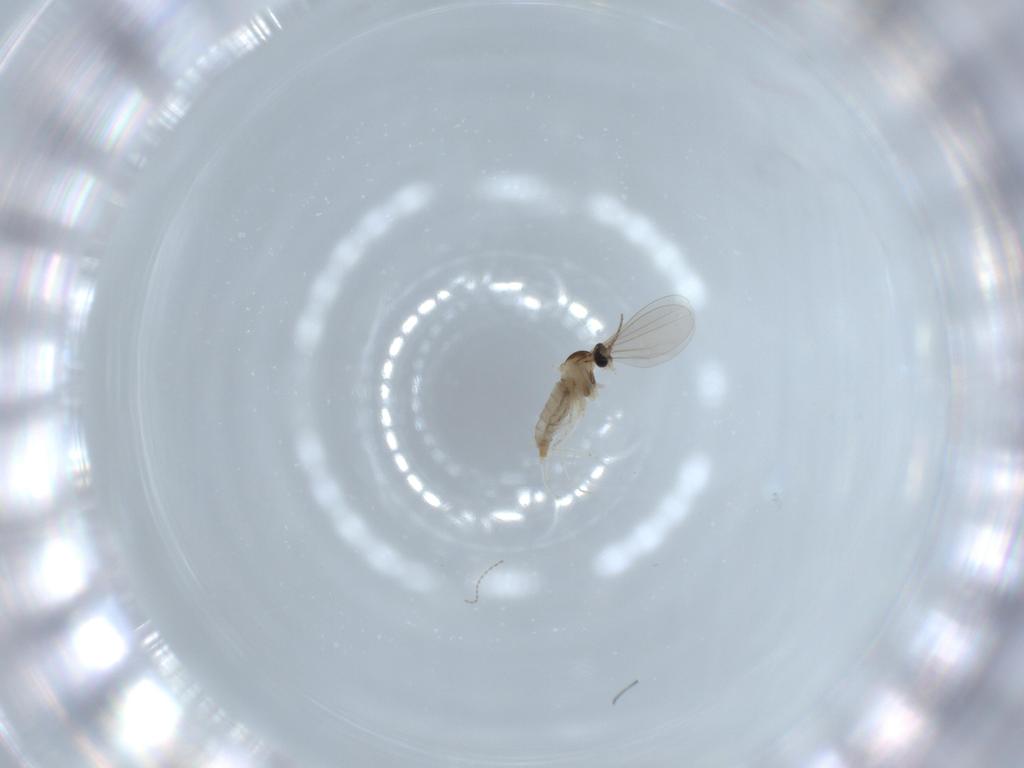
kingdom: Animalia
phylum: Arthropoda
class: Insecta
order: Diptera
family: Cecidomyiidae
